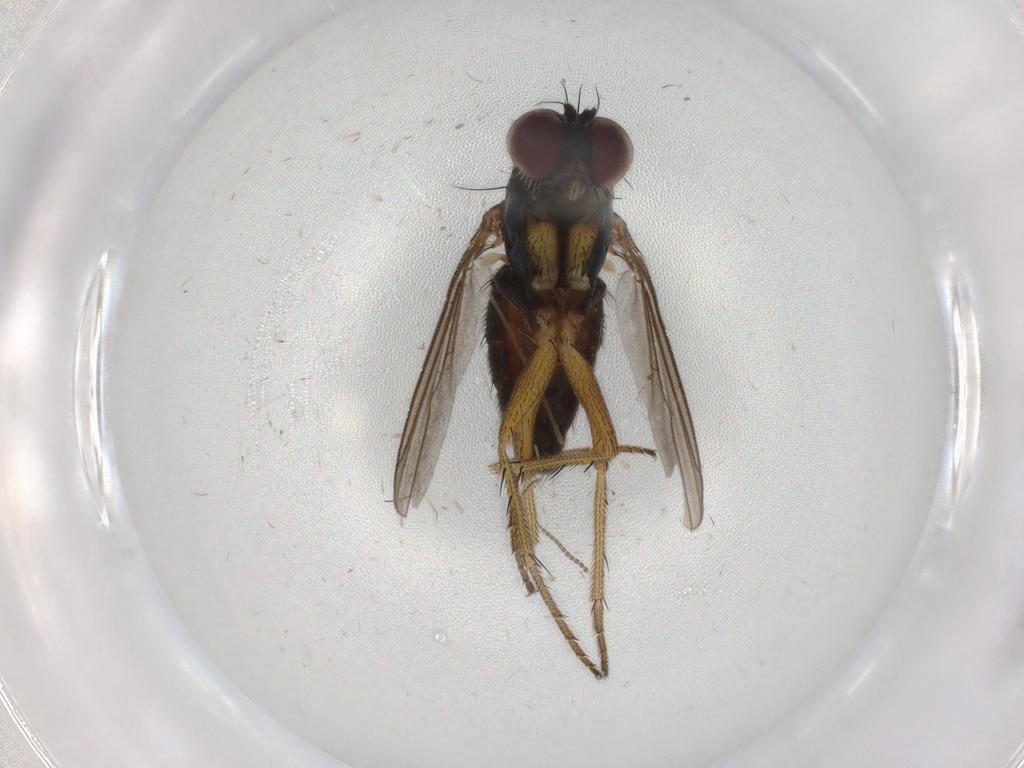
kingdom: Animalia
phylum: Arthropoda
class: Insecta
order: Diptera
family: Dolichopodidae
